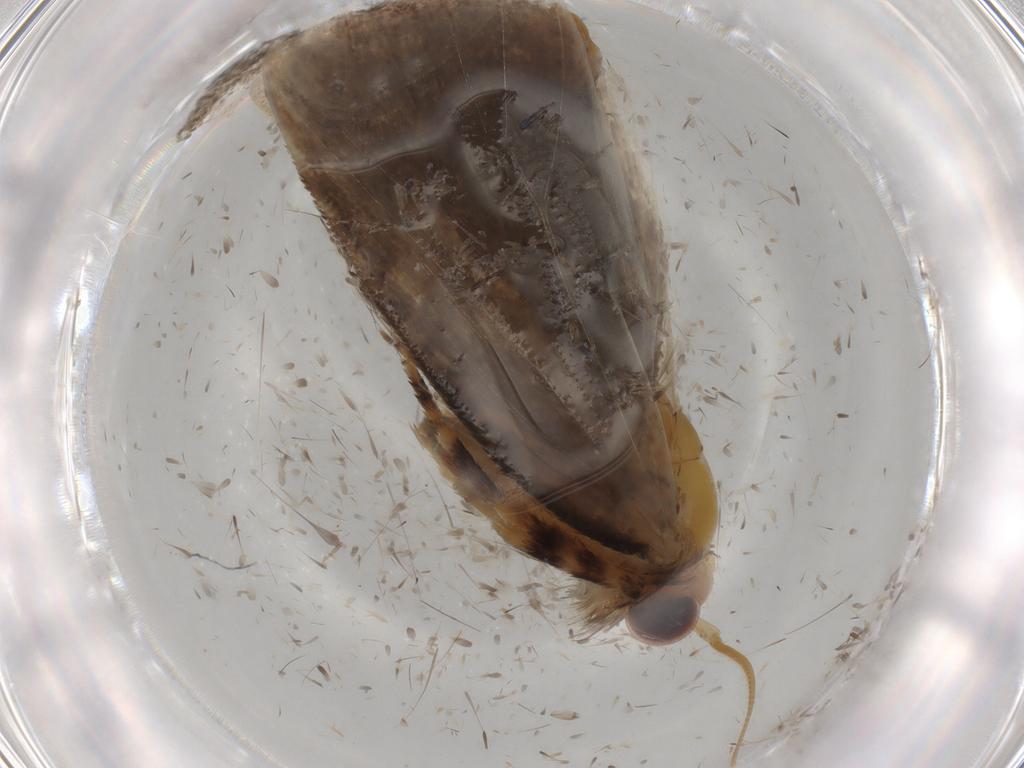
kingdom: Animalia
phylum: Arthropoda
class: Insecta
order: Lepidoptera
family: Tineidae
